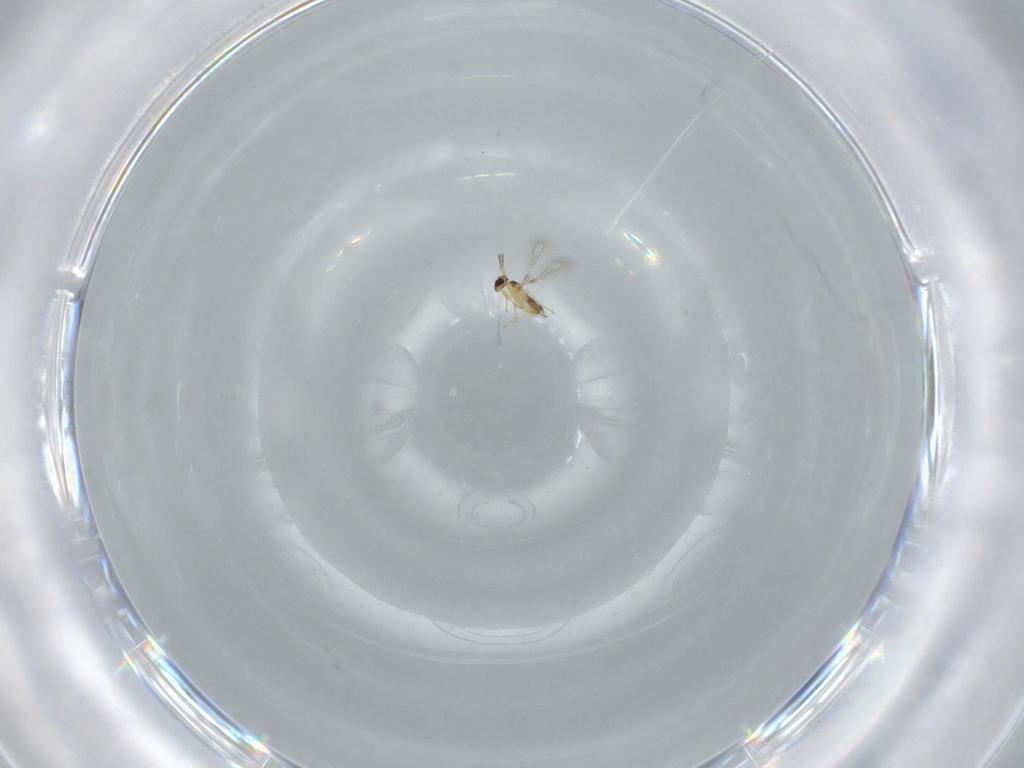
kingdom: Animalia
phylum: Arthropoda
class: Insecta
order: Hymenoptera
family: Mymaridae
